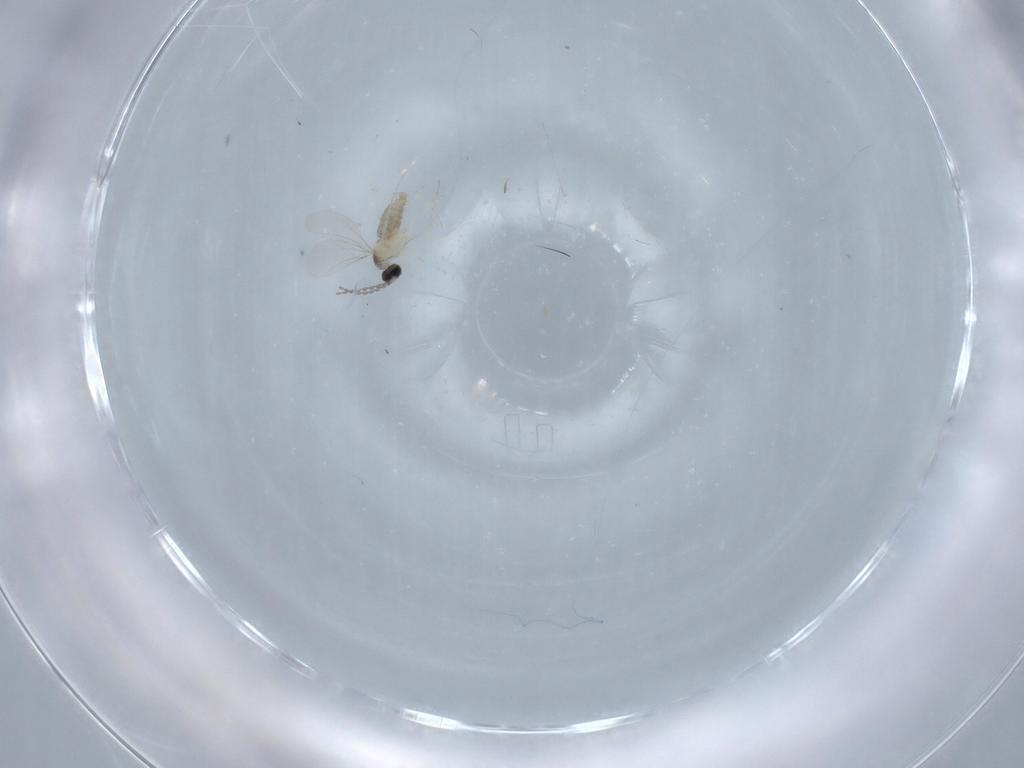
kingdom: Animalia
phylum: Arthropoda
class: Insecta
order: Diptera
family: Cecidomyiidae
